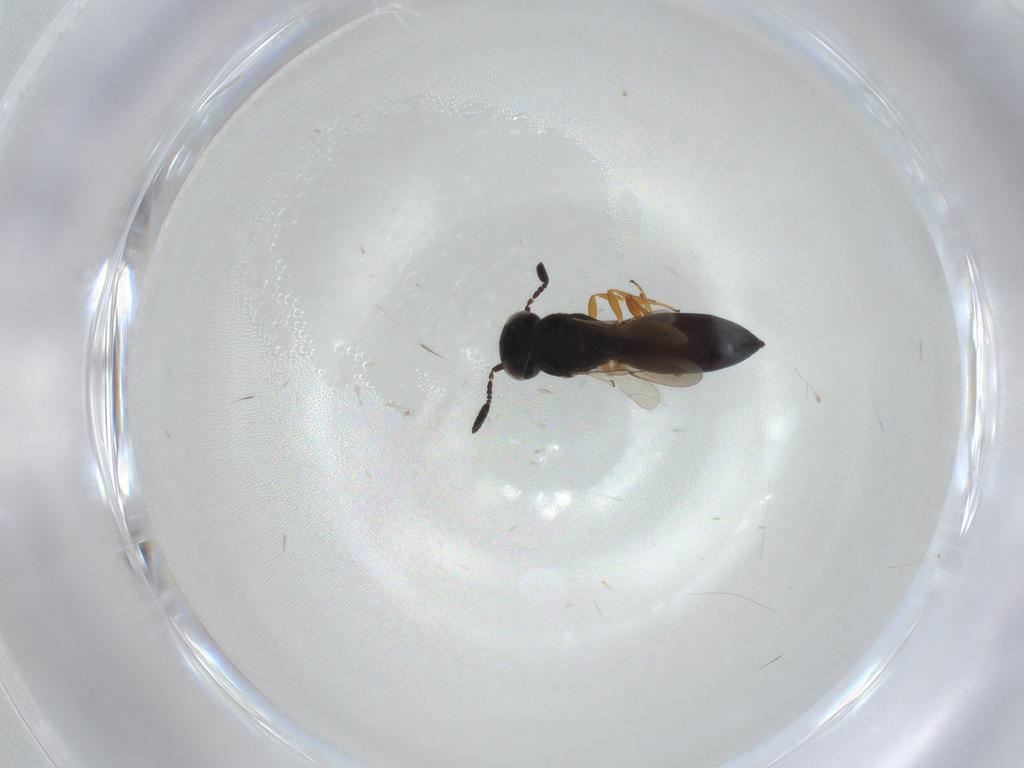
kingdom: Animalia
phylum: Arthropoda
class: Insecta
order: Hymenoptera
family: Scelionidae
